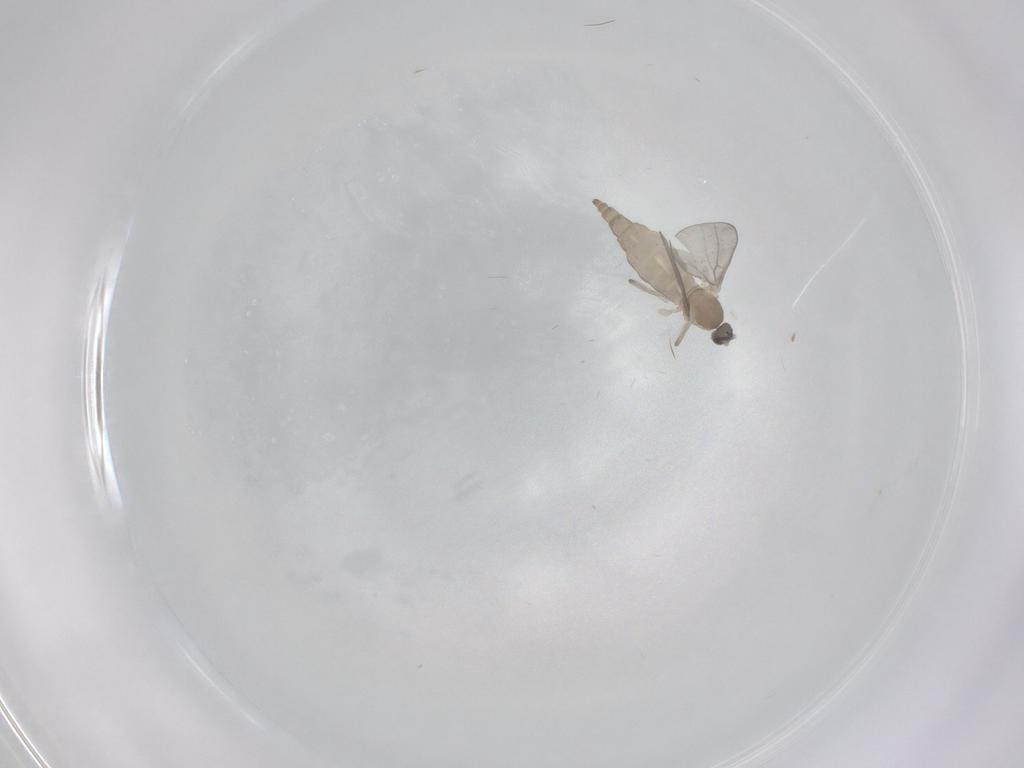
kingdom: Animalia
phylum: Arthropoda
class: Insecta
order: Diptera
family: Cecidomyiidae
